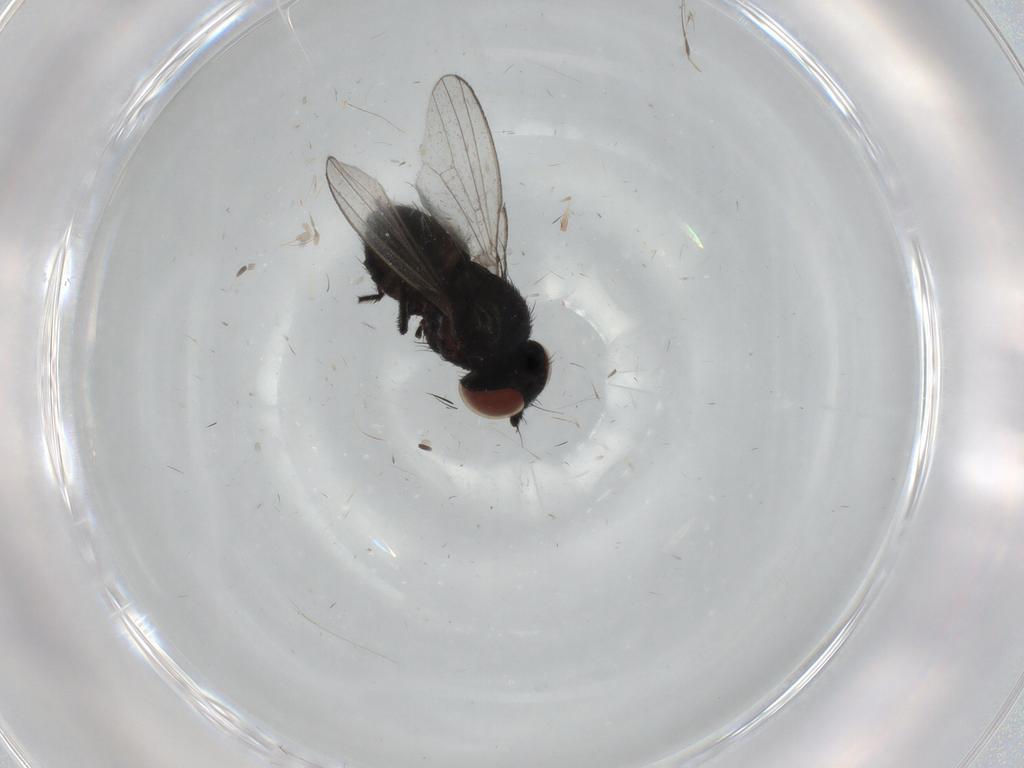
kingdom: Animalia
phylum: Arthropoda
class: Insecta
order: Diptera
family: Milichiidae
